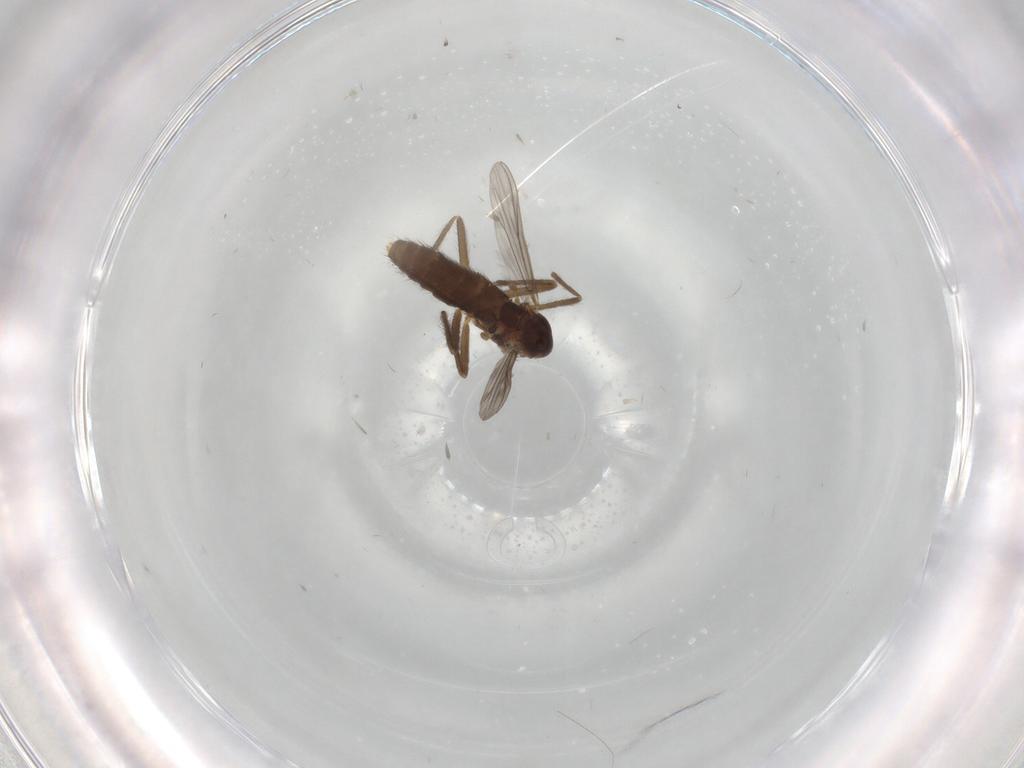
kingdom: Animalia
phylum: Arthropoda
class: Insecta
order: Diptera
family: Chironomidae
